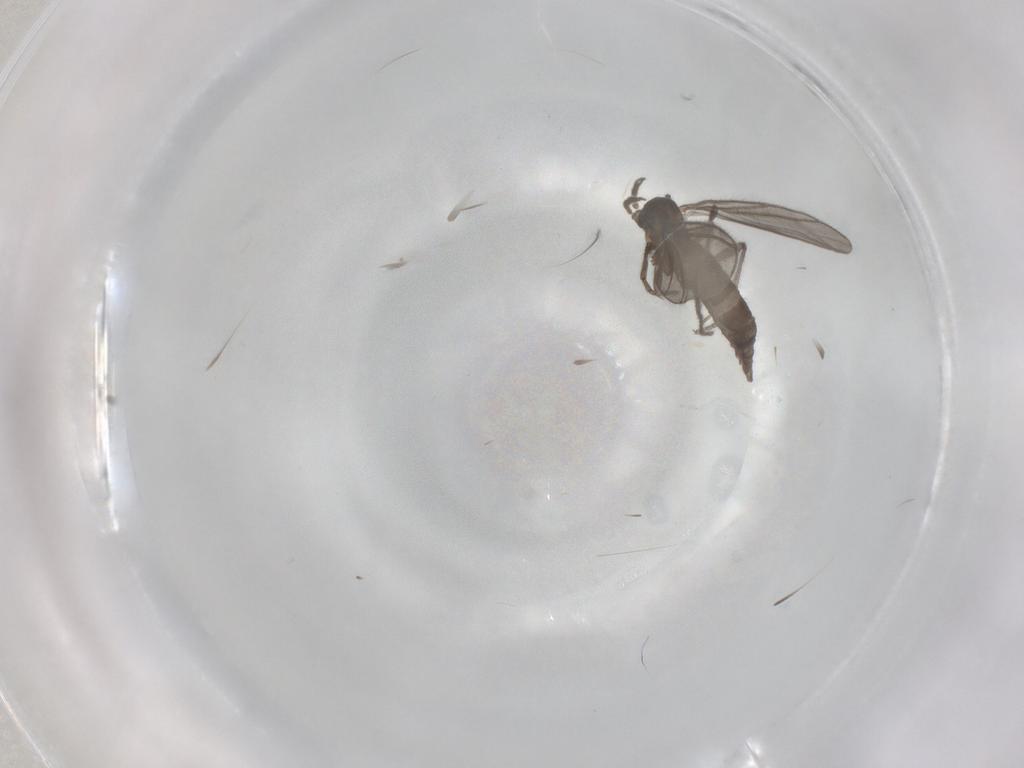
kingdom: Animalia
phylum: Arthropoda
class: Insecta
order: Diptera
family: Sciaridae
